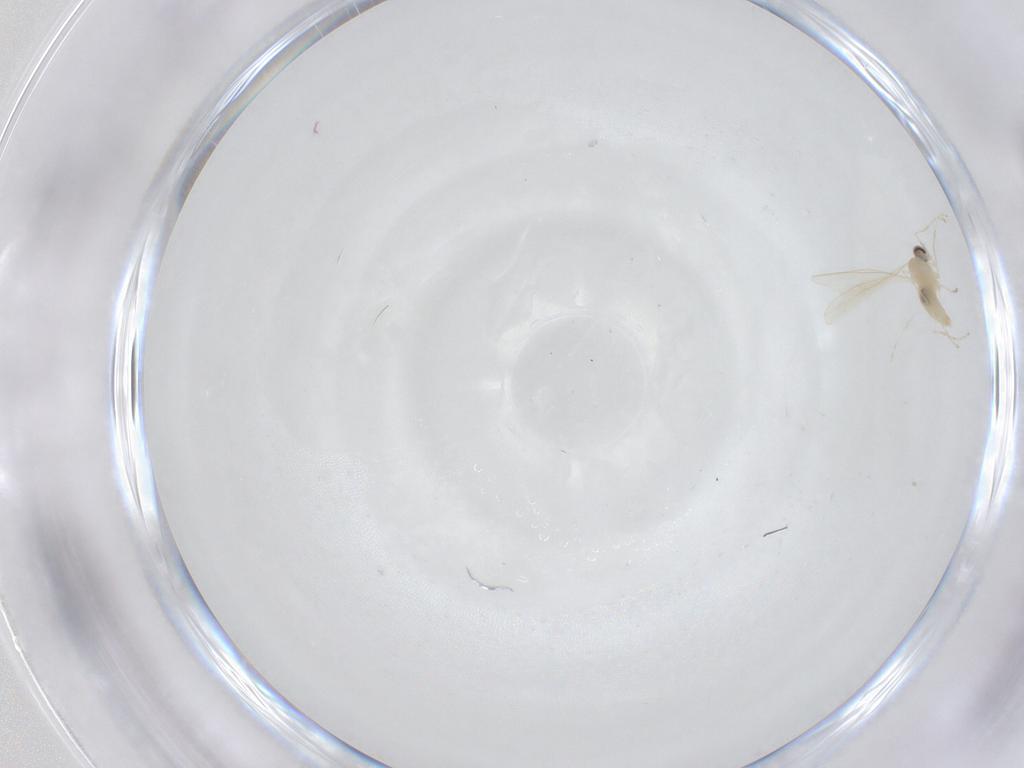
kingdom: Animalia
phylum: Arthropoda
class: Insecta
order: Diptera
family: Cecidomyiidae
